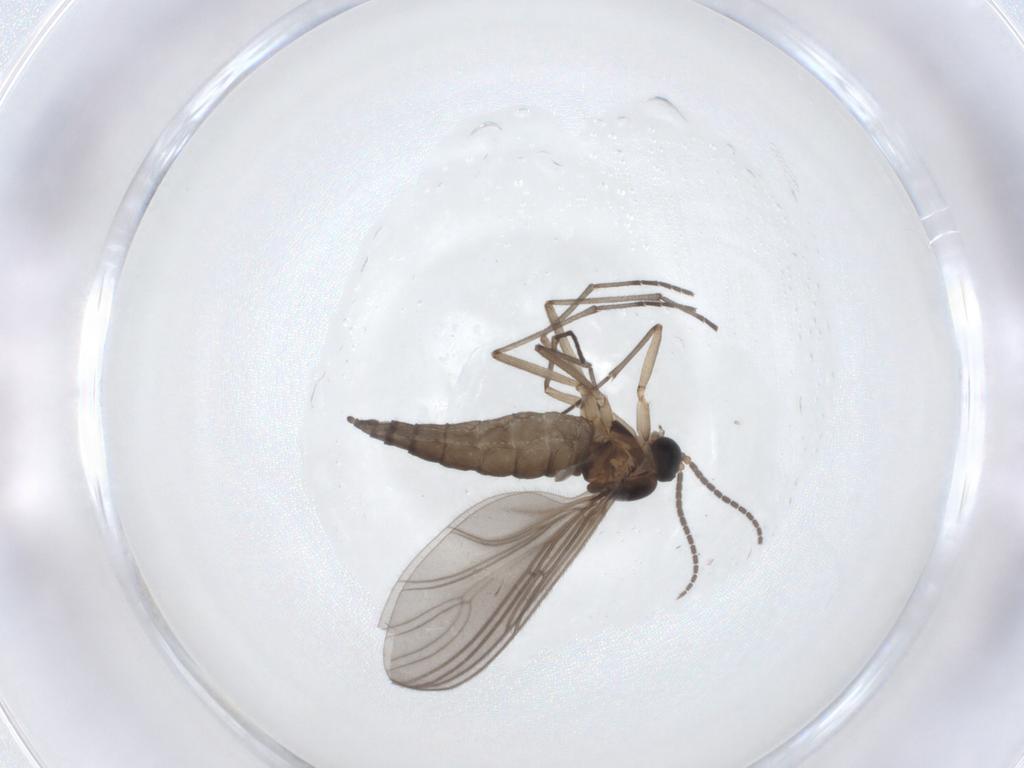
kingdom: Animalia
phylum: Arthropoda
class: Insecta
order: Diptera
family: Sciaridae
